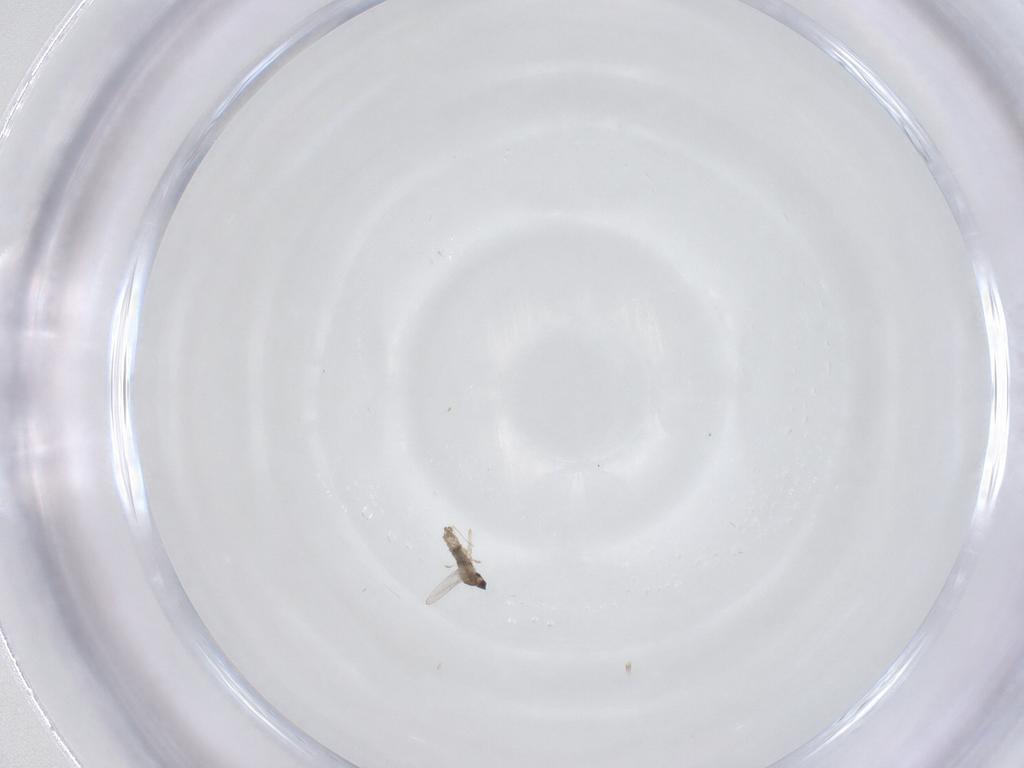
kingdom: Animalia
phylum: Arthropoda
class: Insecta
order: Diptera
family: Cecidomyiidae
